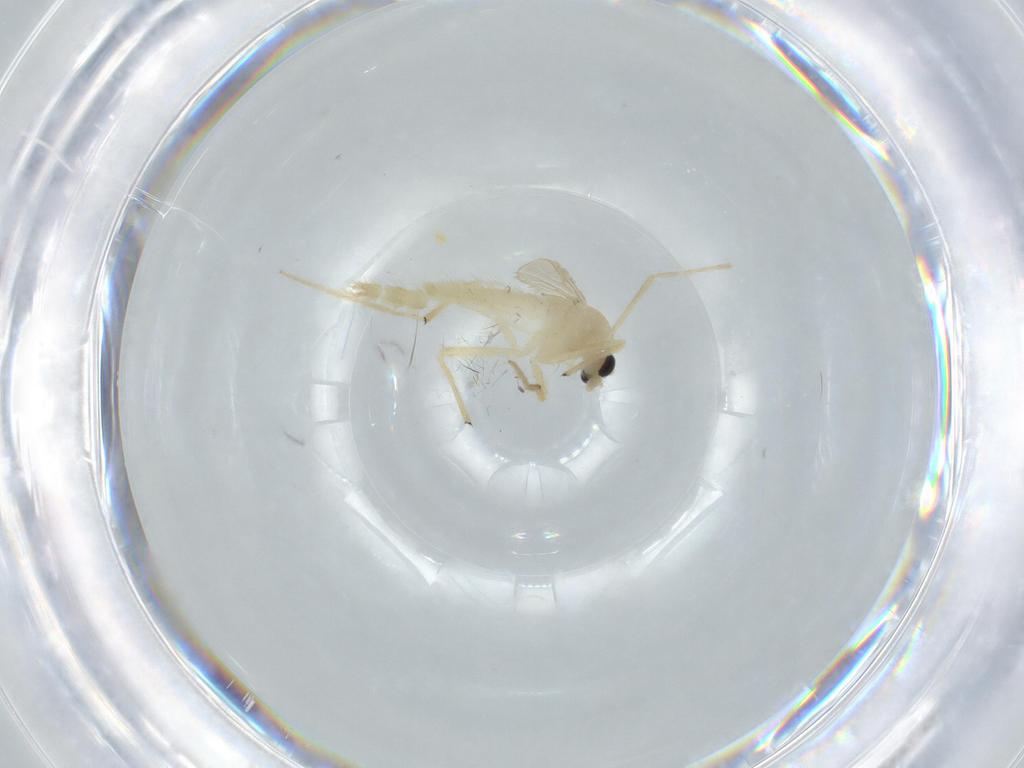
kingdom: Animalia
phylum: Arthropoda
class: Insecta
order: Diptera
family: Chironomidae
